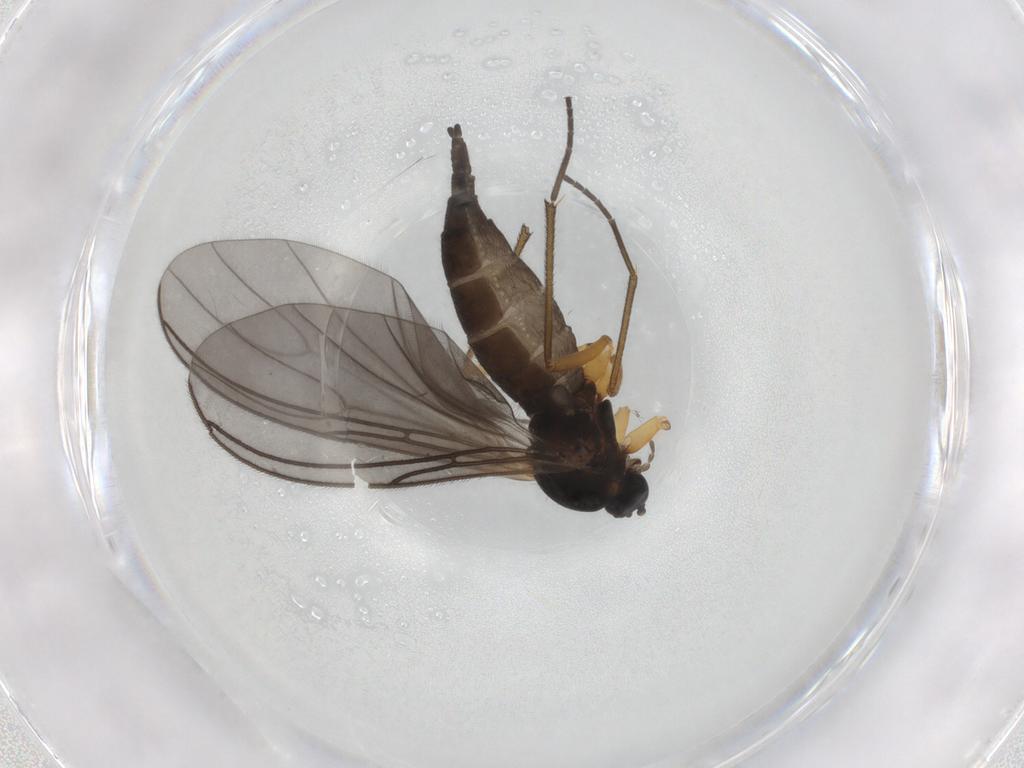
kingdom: Animalia
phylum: Arthropoda
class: Insecta
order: Diptera
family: Sciaridae
